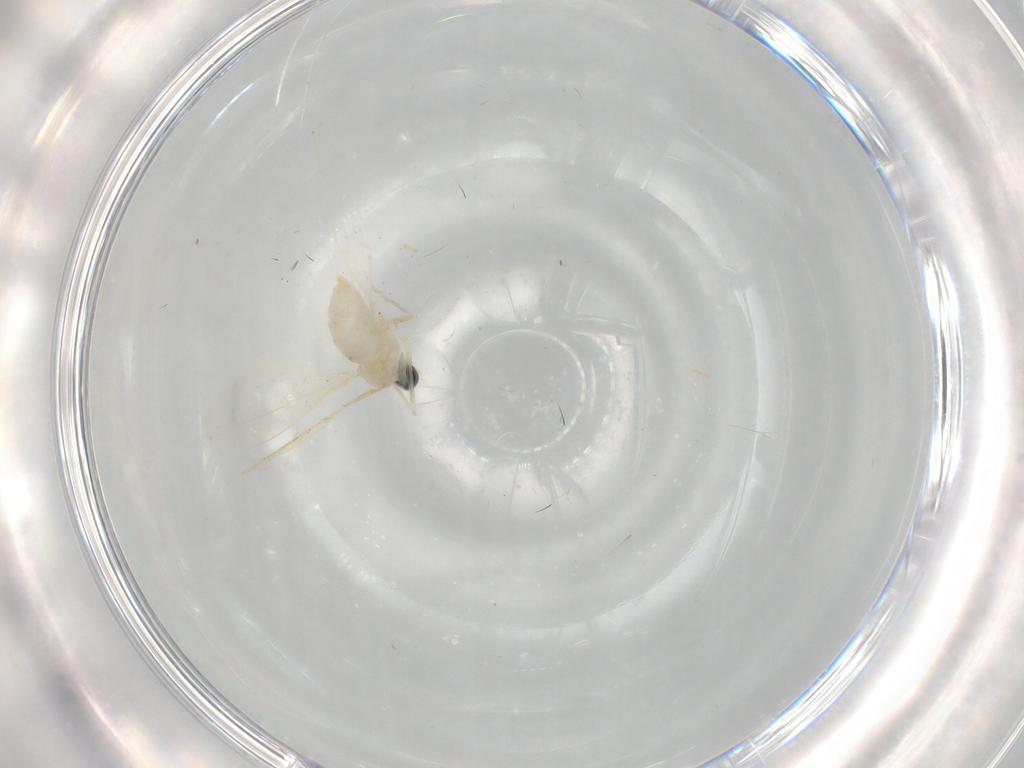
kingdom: Animalia
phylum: Arthropoda
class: Insecta
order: Diptera
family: Cecidomyiidae
